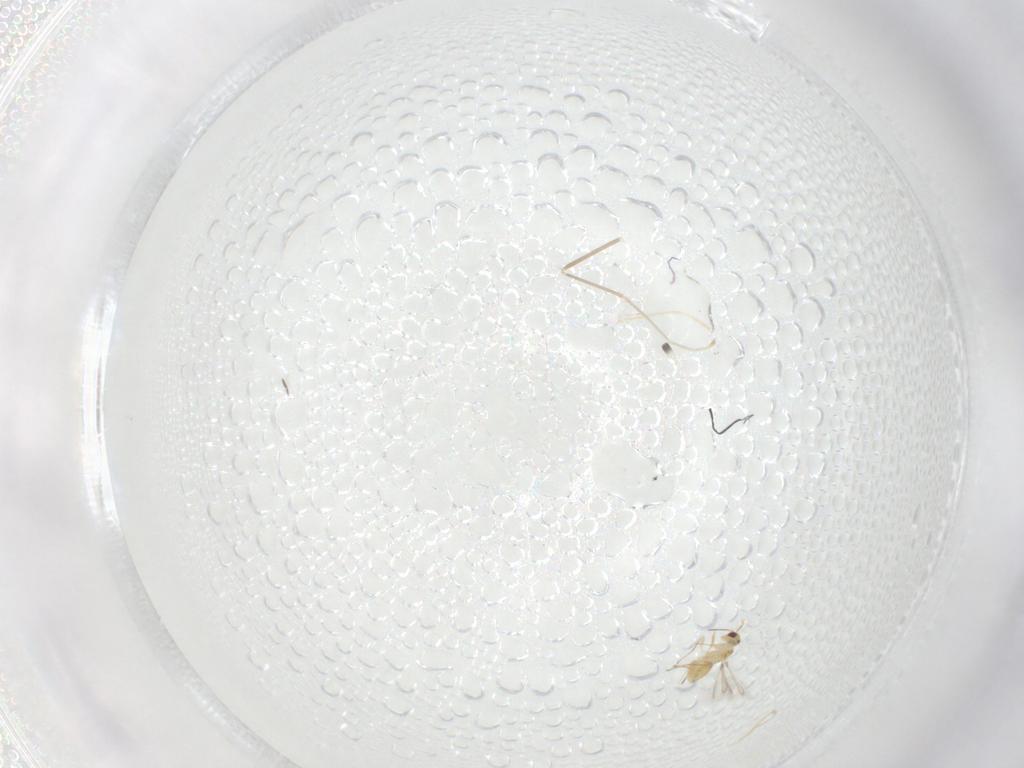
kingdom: Animalia
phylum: Arthropoda
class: Insecta
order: Hymenoptera
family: Mymaridae
